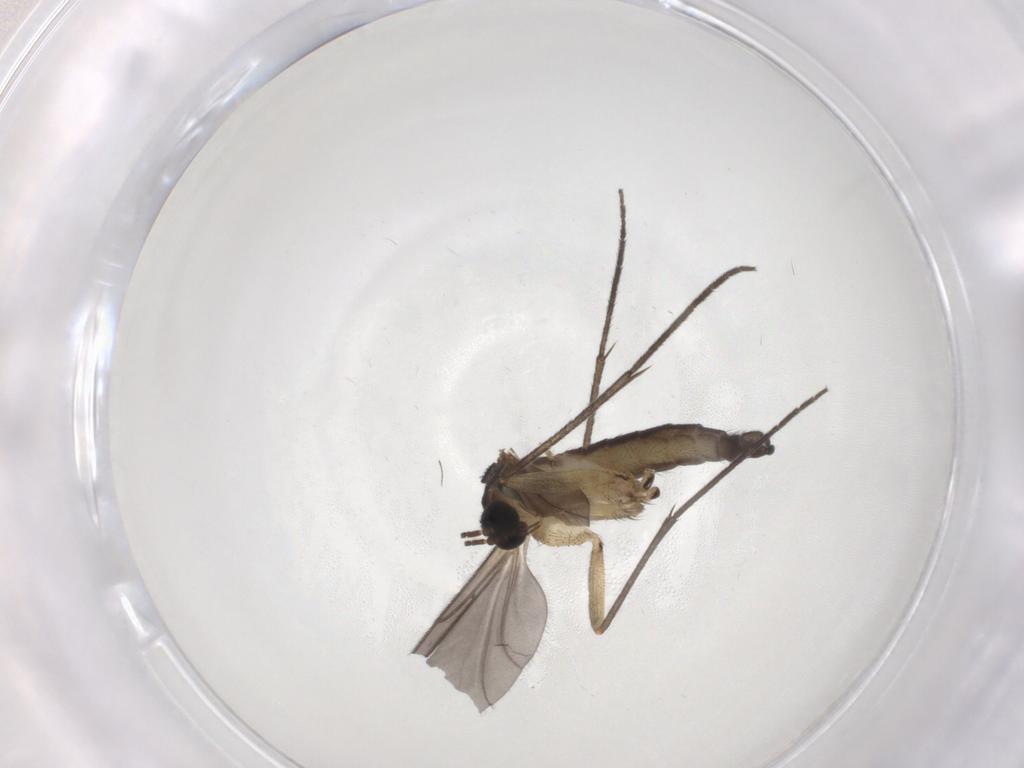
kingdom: Animalia
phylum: Arthropoda
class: Insecta
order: Diptera
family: Sciaridae
